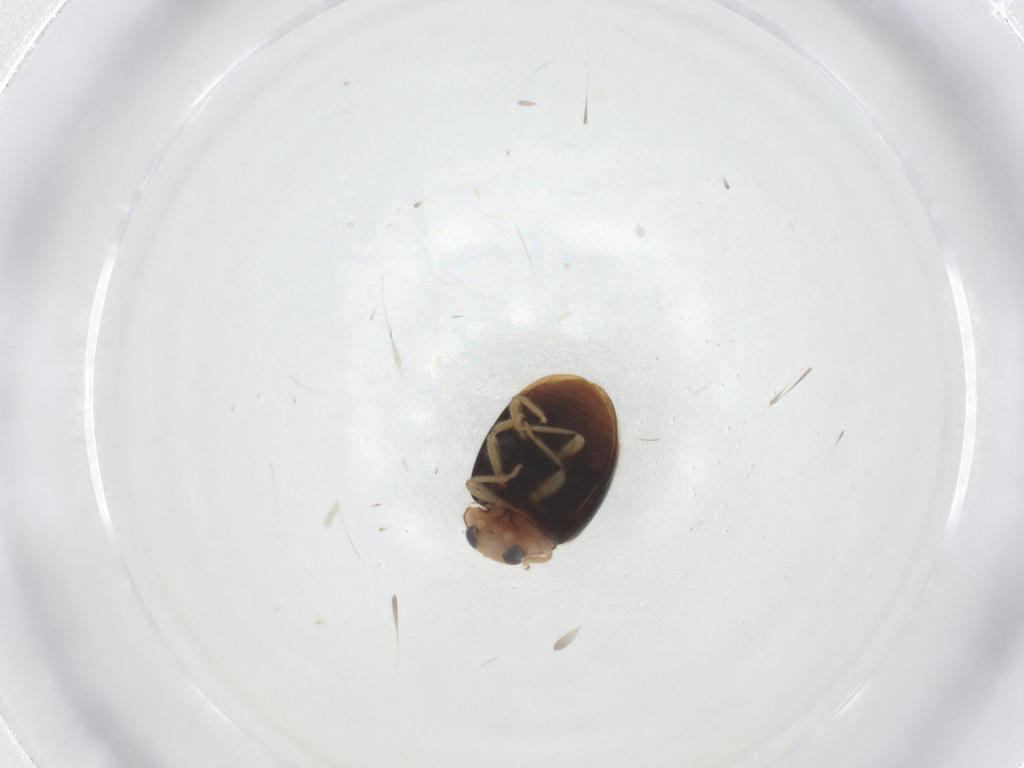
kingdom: Animalia
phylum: Arthropoda
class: Insecta
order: Coleoptera
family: Coccinellidae
